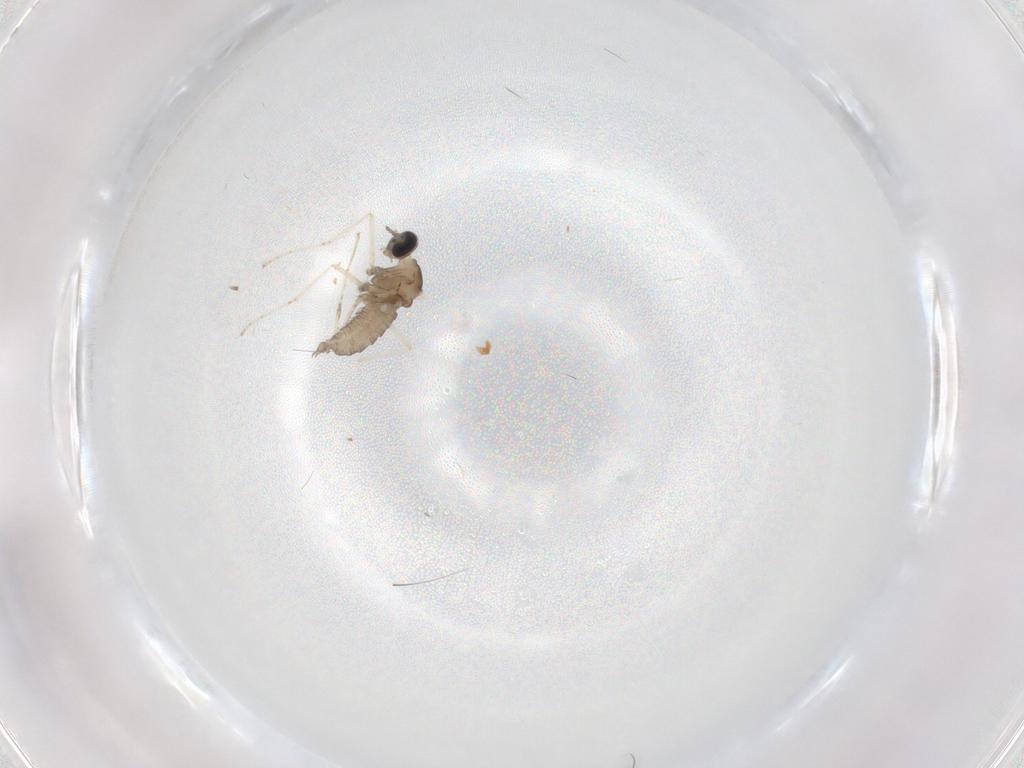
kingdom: Animalia
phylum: Arthropoda
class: Insecta
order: Diptera
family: Cecidomyiidae
